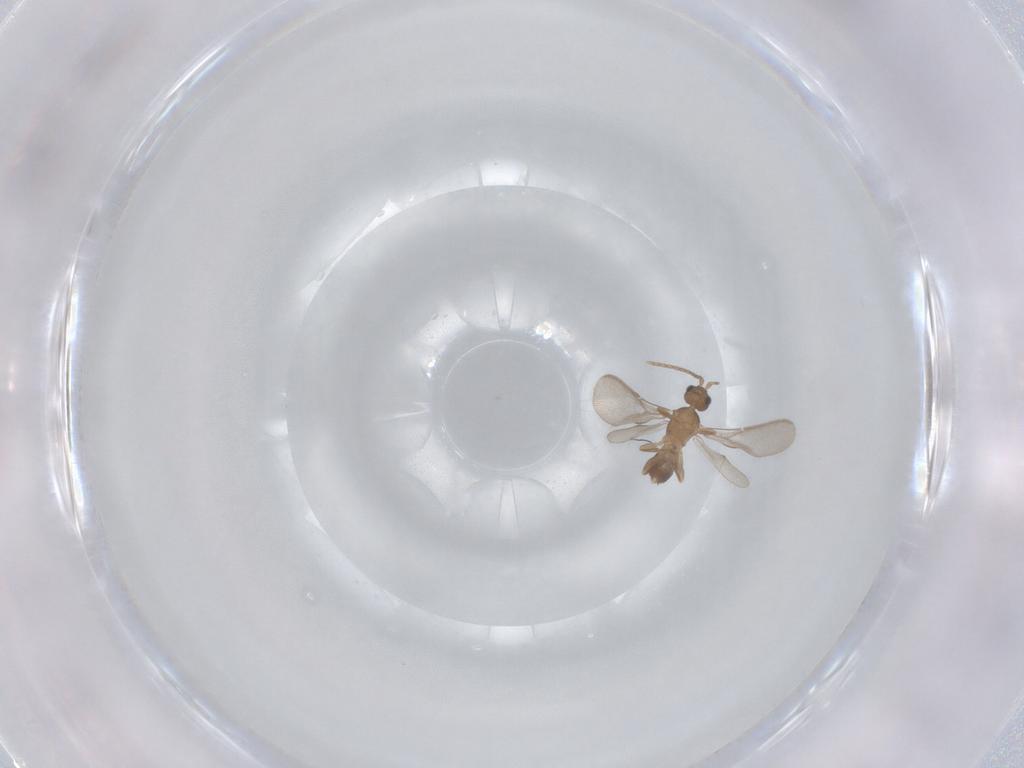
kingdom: Animalia
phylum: Arthropoda
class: Insecta
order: Hymenoptera
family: Ichneumonidae
